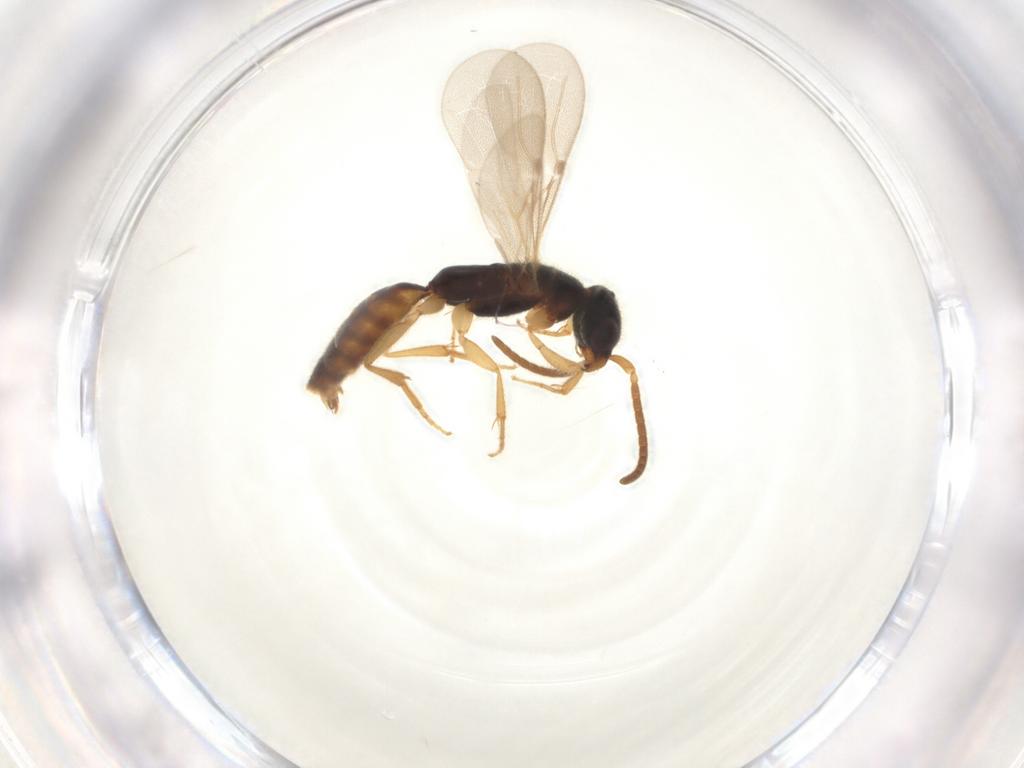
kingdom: Animalia
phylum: Arthropoda
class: Insecta
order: Hymenoptera
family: Bethylidae
